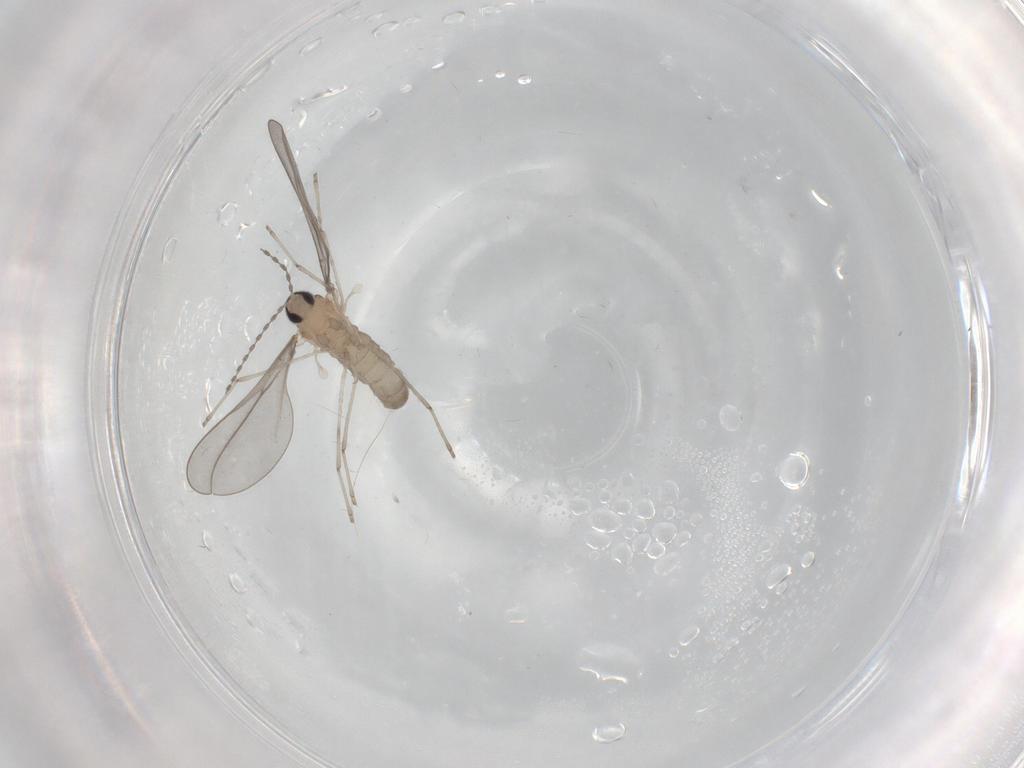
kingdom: Animalia
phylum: Arthropoda
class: Insecta
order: Diptera
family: Cecidomyiidae
